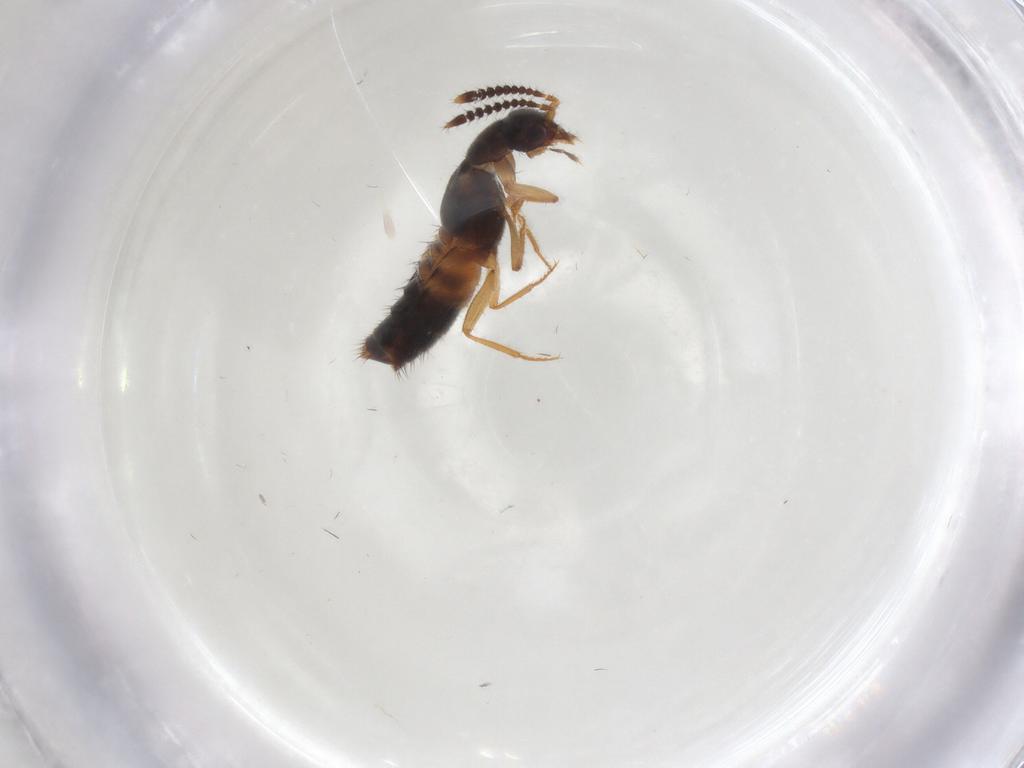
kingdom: Animalia
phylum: Arthropoda
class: Insecta
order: Coleoptera
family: Staphylinidae
